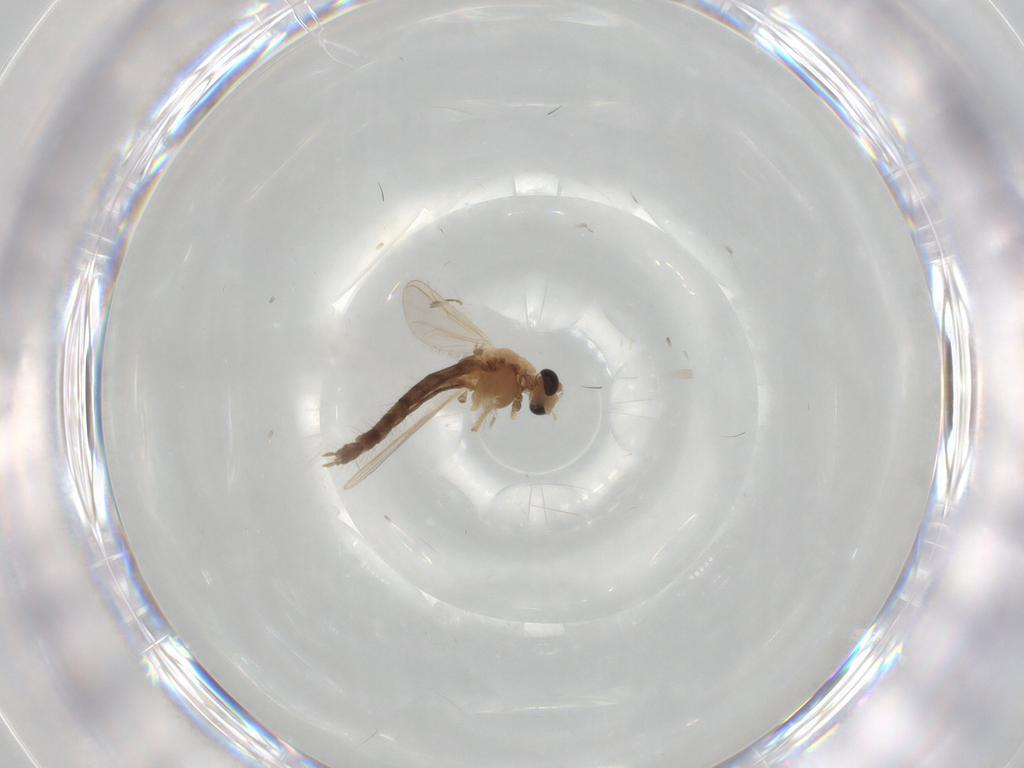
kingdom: Animalia
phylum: Arthropoda
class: Insecta
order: Diptera
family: Chironomidae
